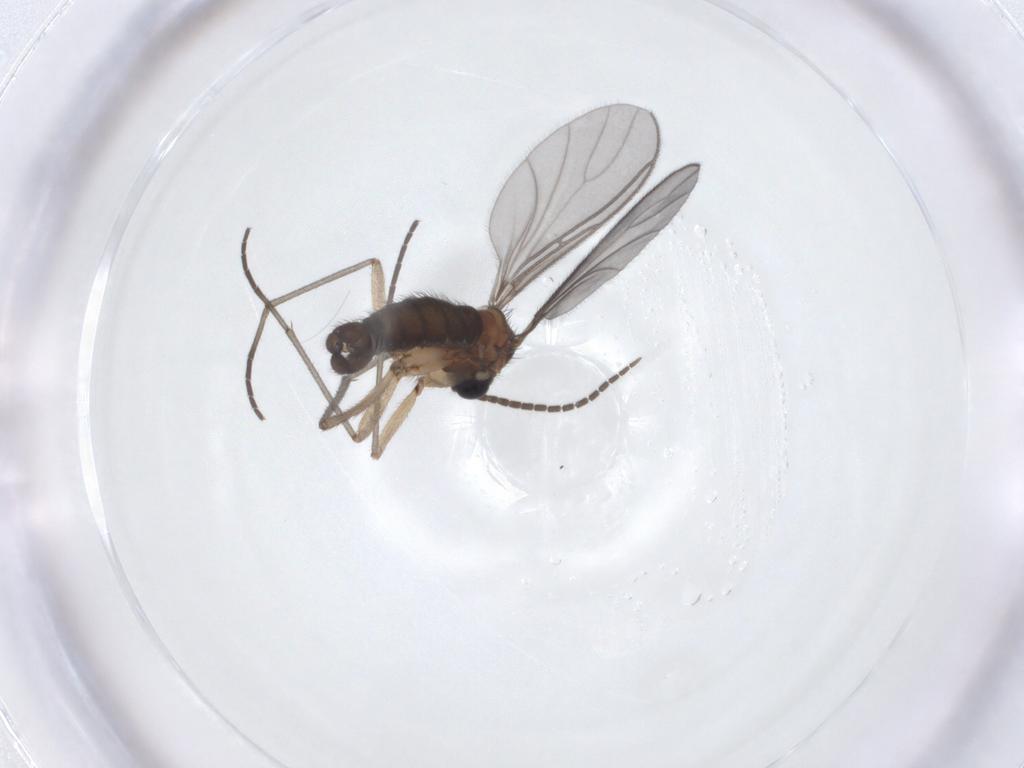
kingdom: Animalia
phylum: Arthropoda
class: Insecta
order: Diptera
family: Sciaridae
